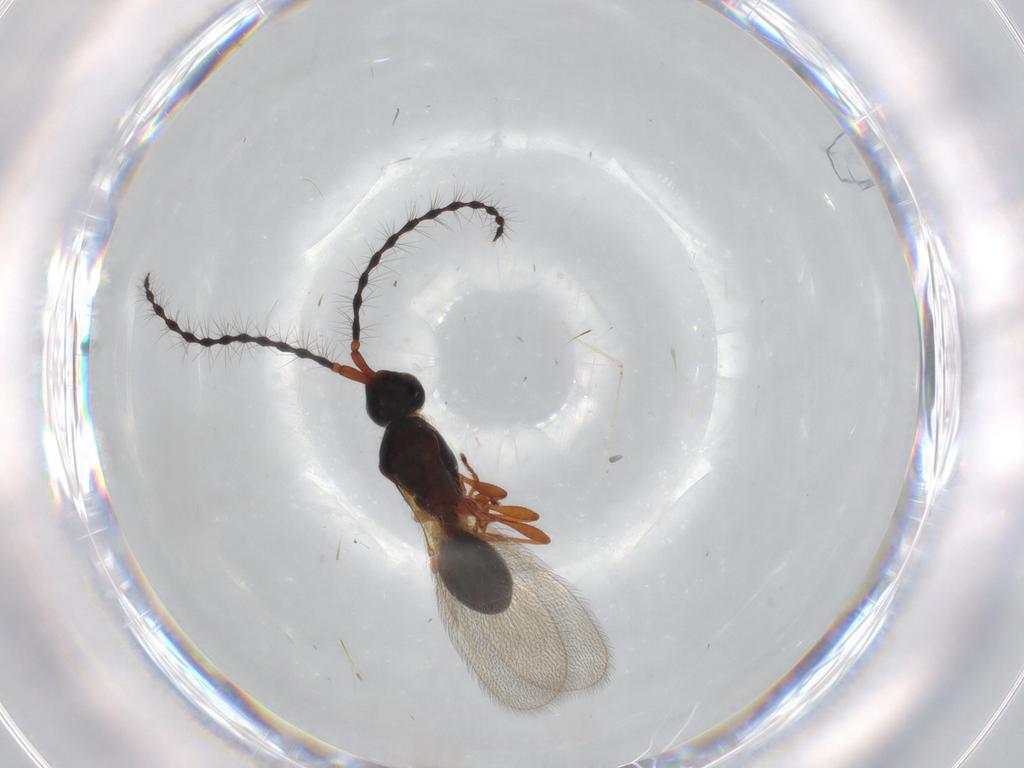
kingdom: Animalia
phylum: Arthropoda
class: Insecta
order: Hymenoptera
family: Diapriidae
